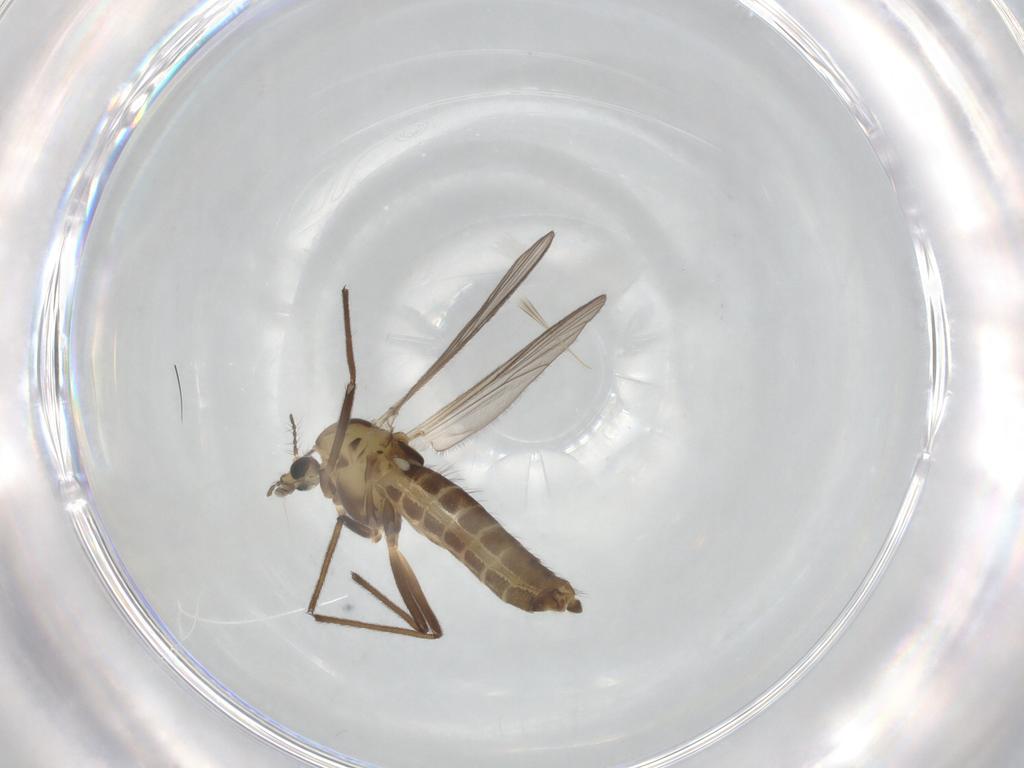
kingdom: Animalia
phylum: Arthropoda
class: Insecta
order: Diptera
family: Chironomidae
